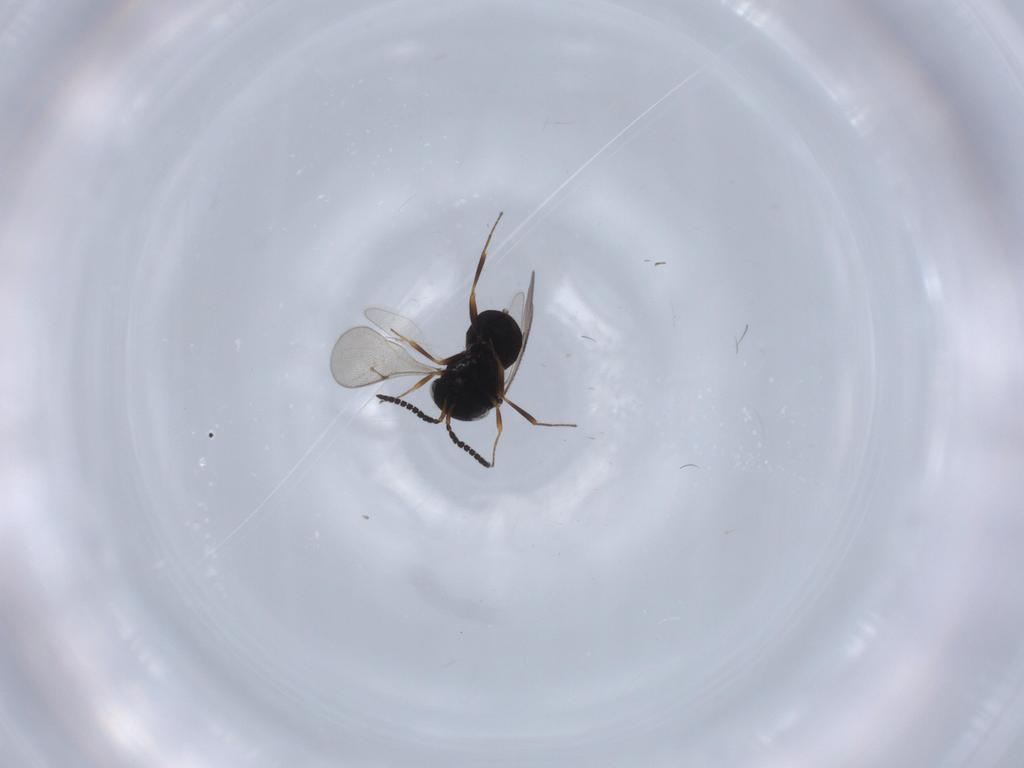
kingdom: Animalia
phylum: Arthropoda
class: Insecta
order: Hymenoptera
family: Scelionidae
